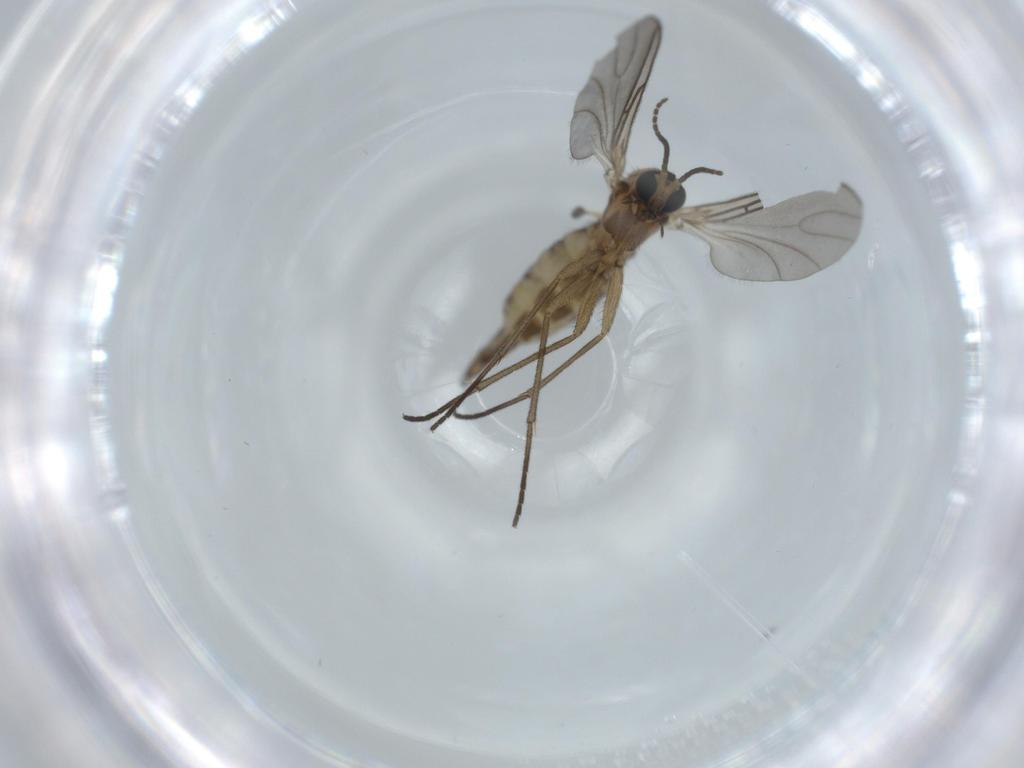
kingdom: Animalia
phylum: Arthropoda
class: Insecta
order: Diptera
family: Sciaridae
